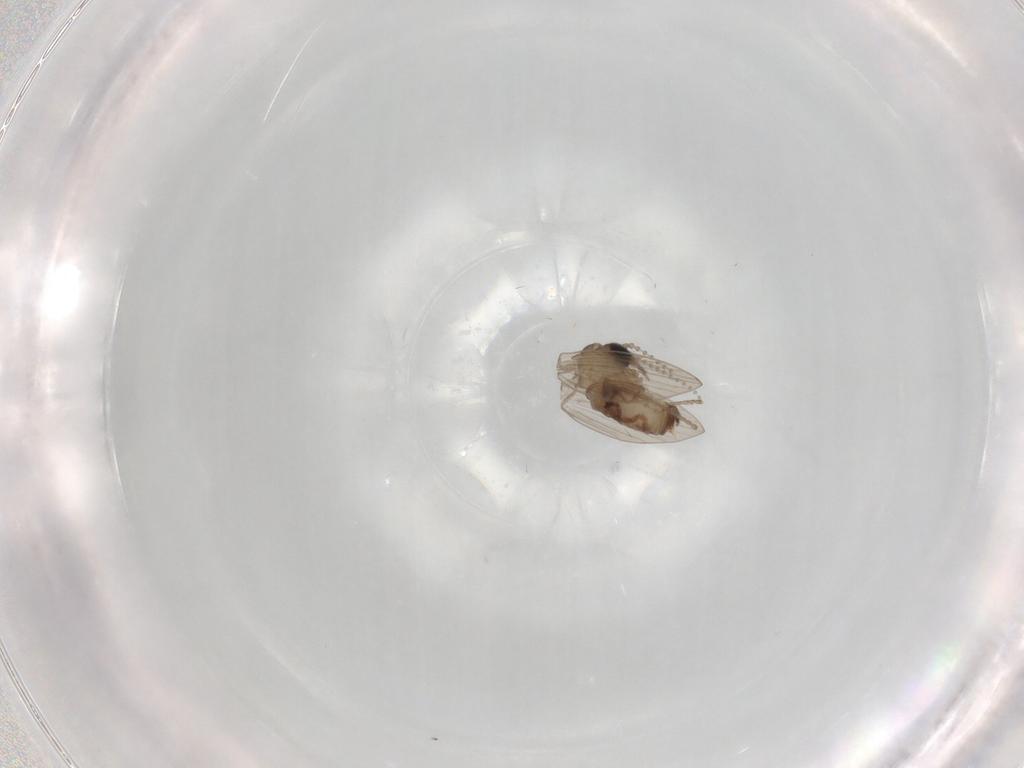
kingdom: Animalia
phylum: Arthropoda
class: Insecta
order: Diptera
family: Psychodidae
